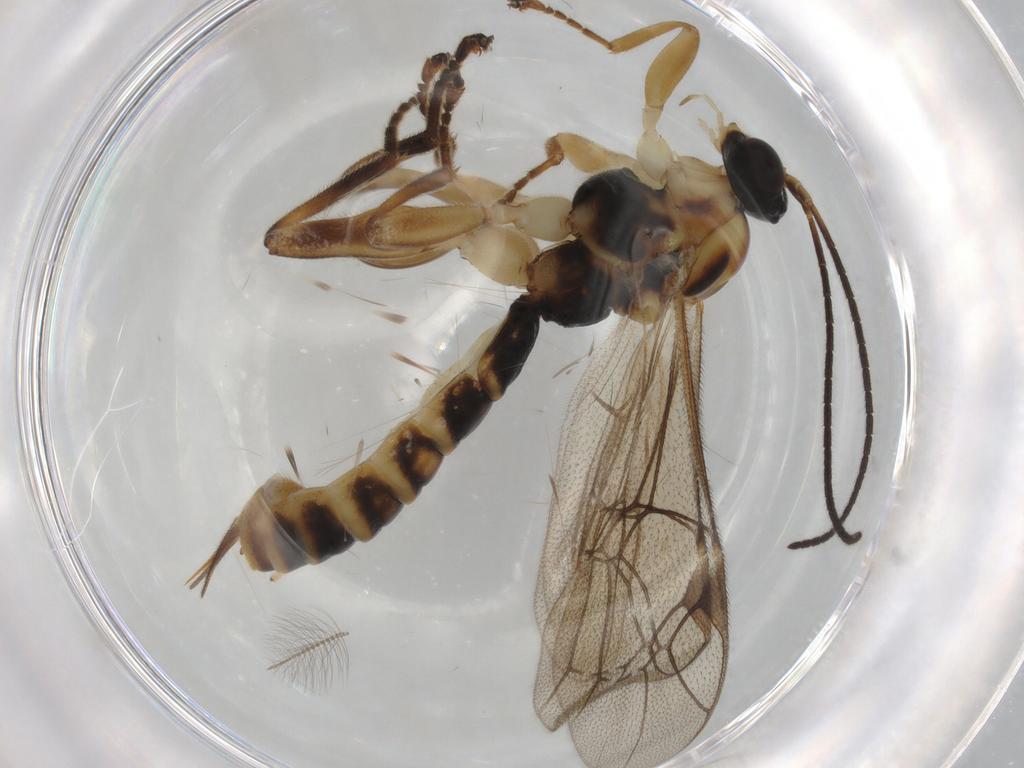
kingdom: Animalia
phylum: Arthropoda
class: Insecta
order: Hymenoptera
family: Ichneumonidae
